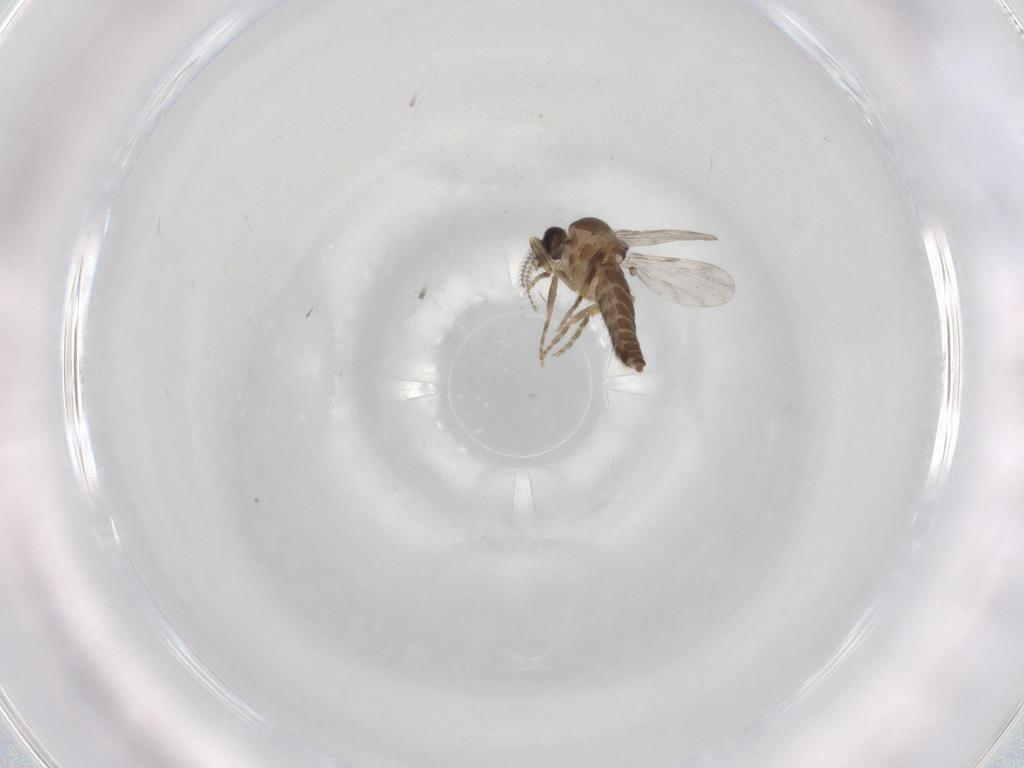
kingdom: Animalia
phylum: Arthropoda
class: Insecta
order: Diptera
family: Ceratopogonidae
